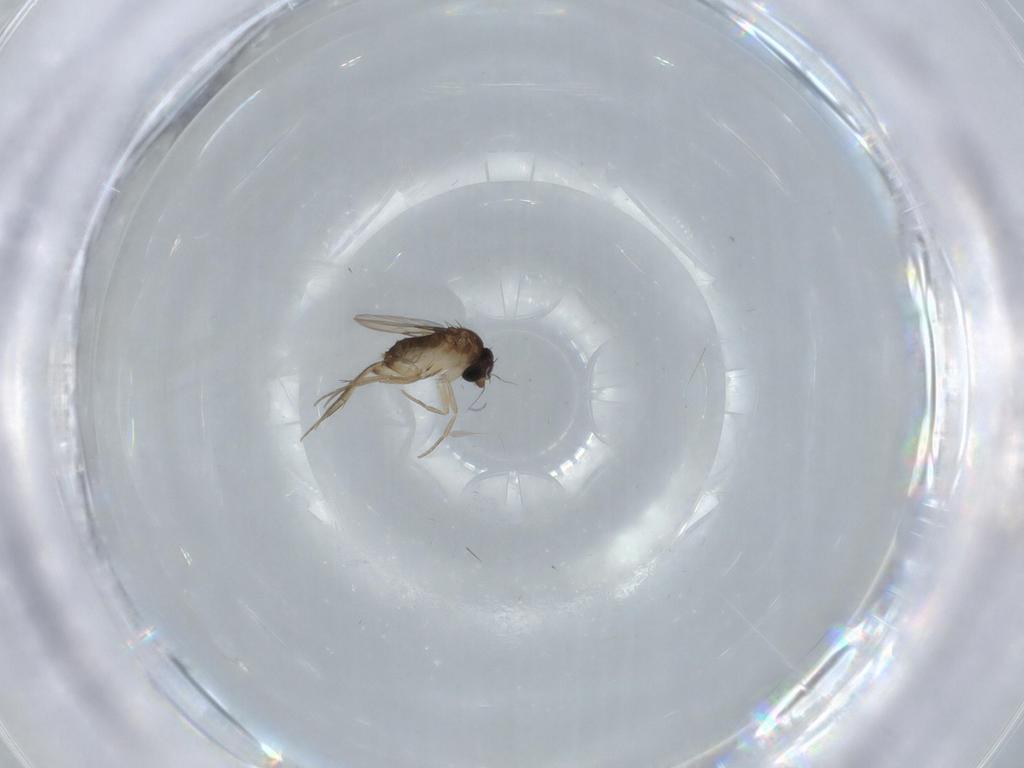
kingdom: Animalia
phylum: Arthropoda
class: Insecta
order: Diptera
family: Phoridae
